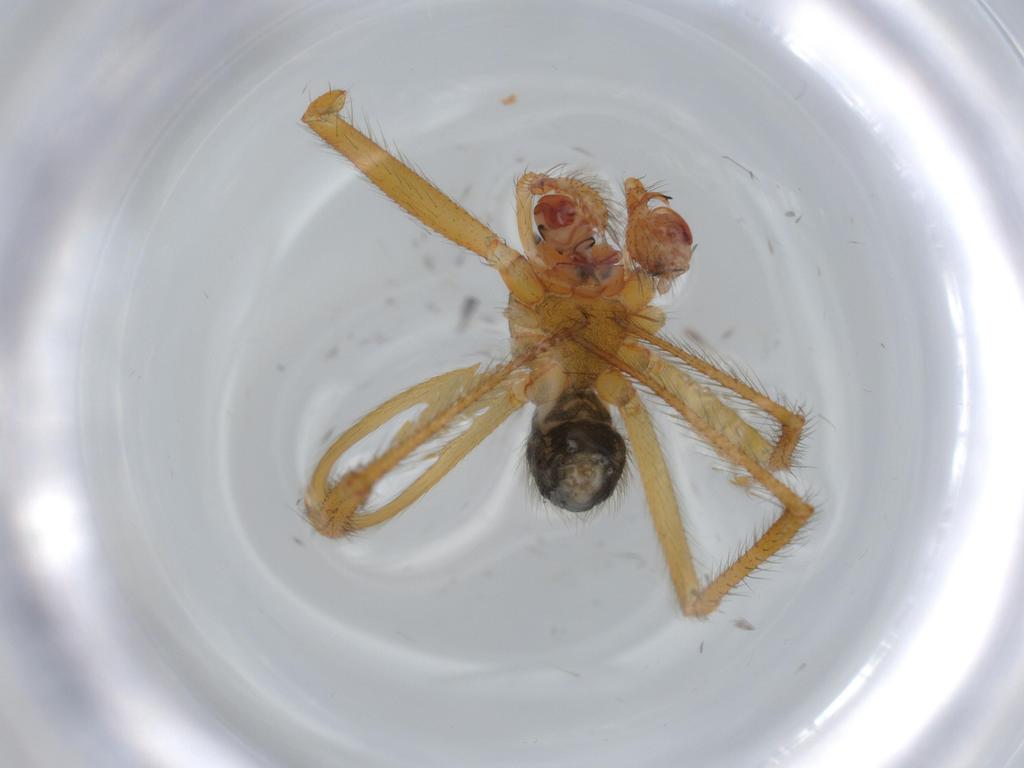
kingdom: Animalia
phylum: Arthropoda
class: Arachnida
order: Araneae
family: Nesticidae
